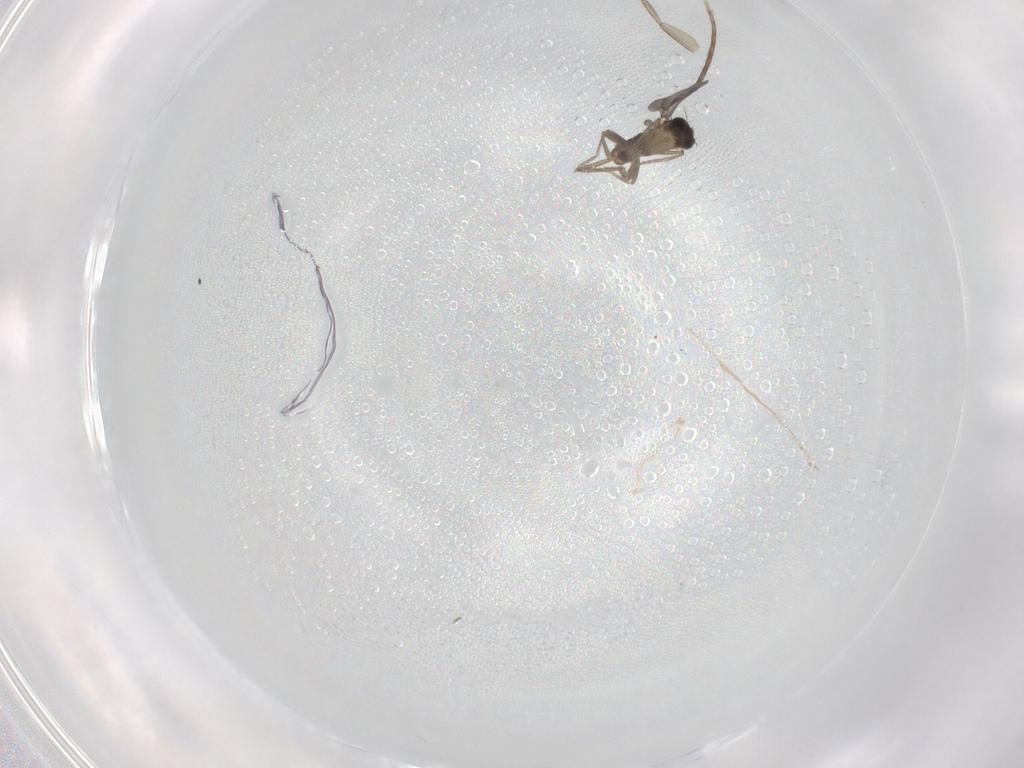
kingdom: Animalia
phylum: Arthropoda
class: Insecta
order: Diptera
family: Phoridae
